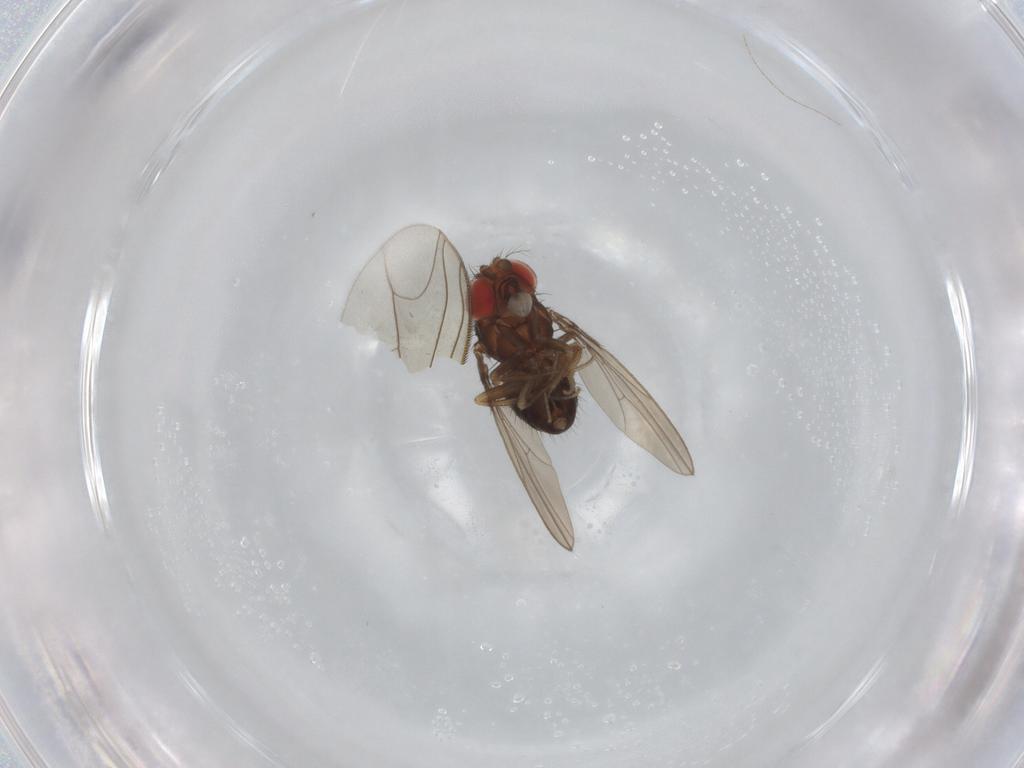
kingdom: Animalia
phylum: Arthropoda
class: Insecta
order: Diptera
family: Drosophilidae
